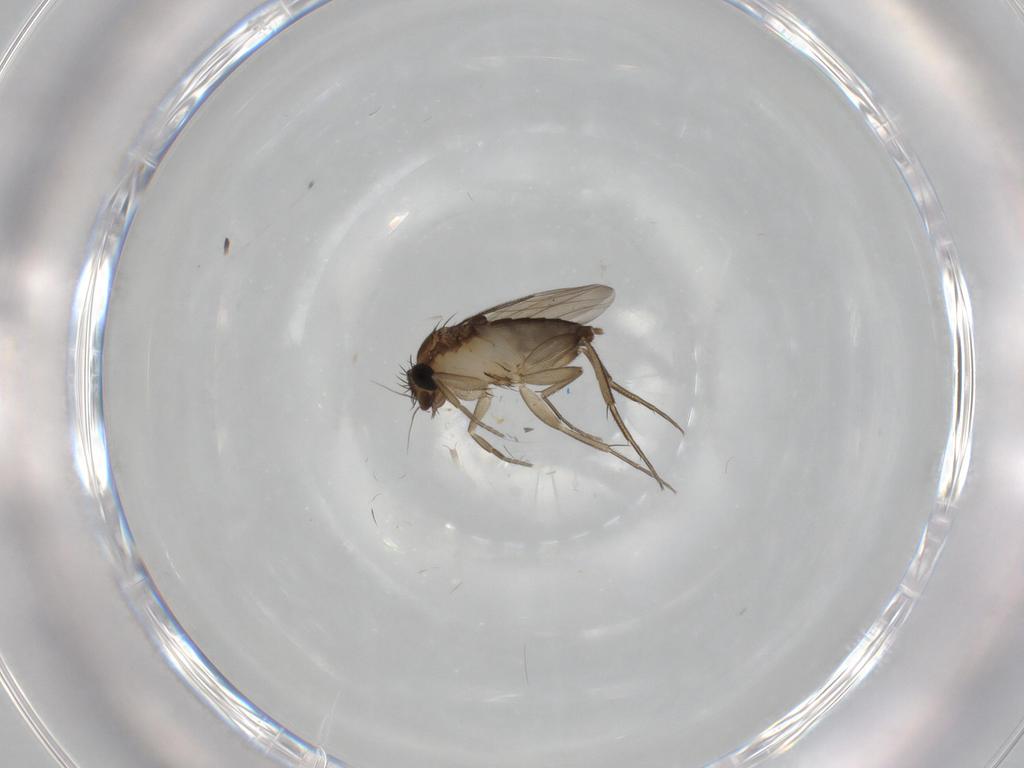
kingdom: Animalia
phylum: Arthropoda
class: Insecta
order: Diptera
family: Phoridae
